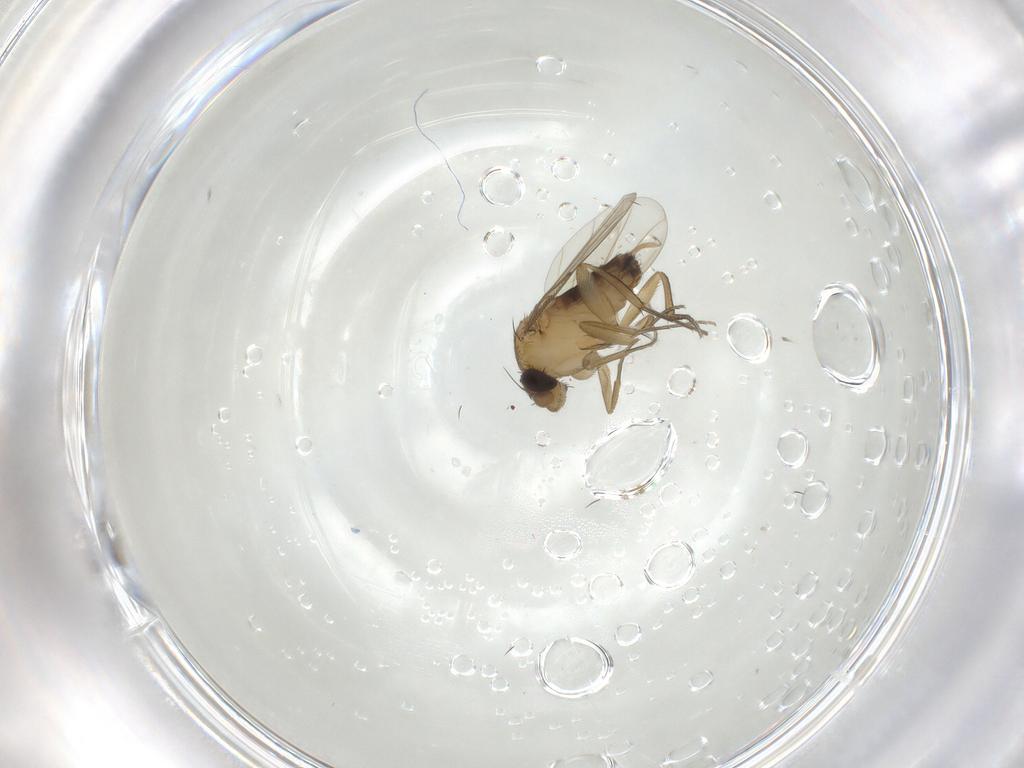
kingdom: Animalia
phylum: Arthropoda
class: Insecta
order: Diptera
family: Phoridae
